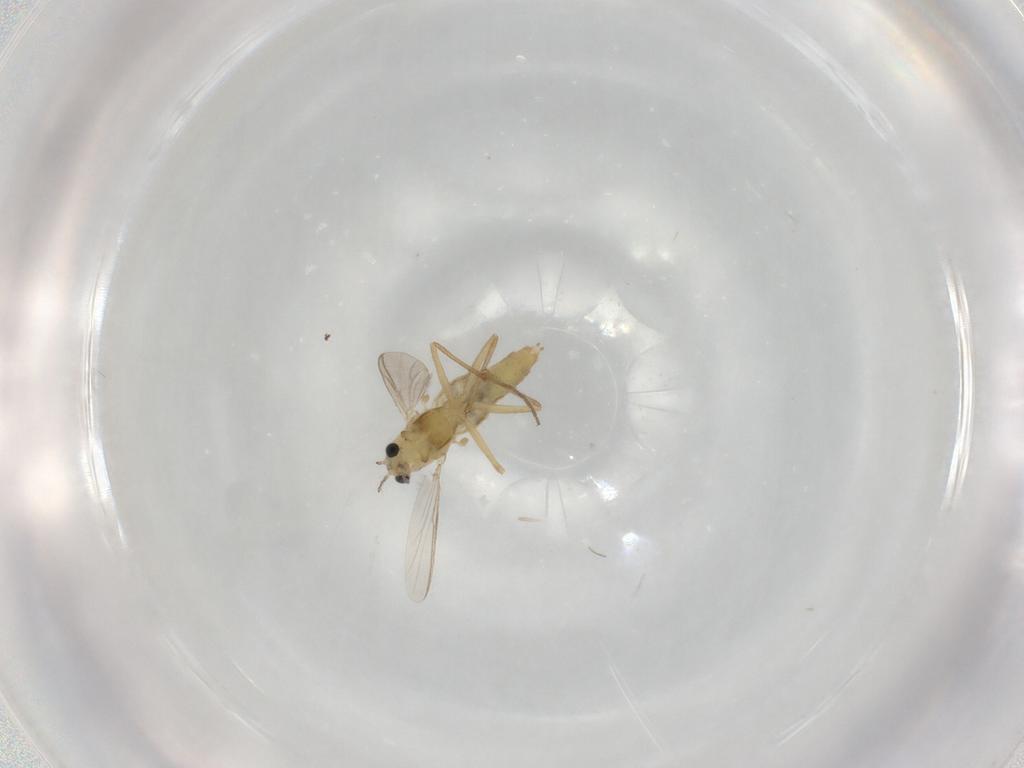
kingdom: Animalia
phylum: Arthropoda
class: Insecta
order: Diptera
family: Chironomidae
